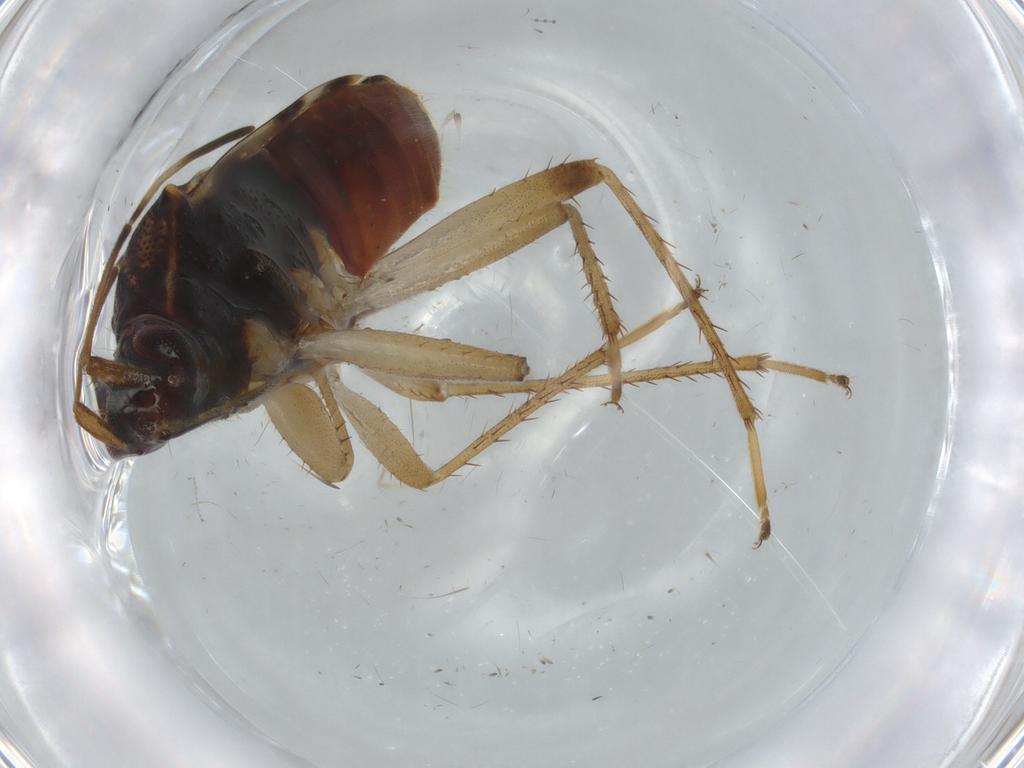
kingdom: Animalia
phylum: Arthropoda
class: Insecta
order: Hemiptera
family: Rhyparochromidae
